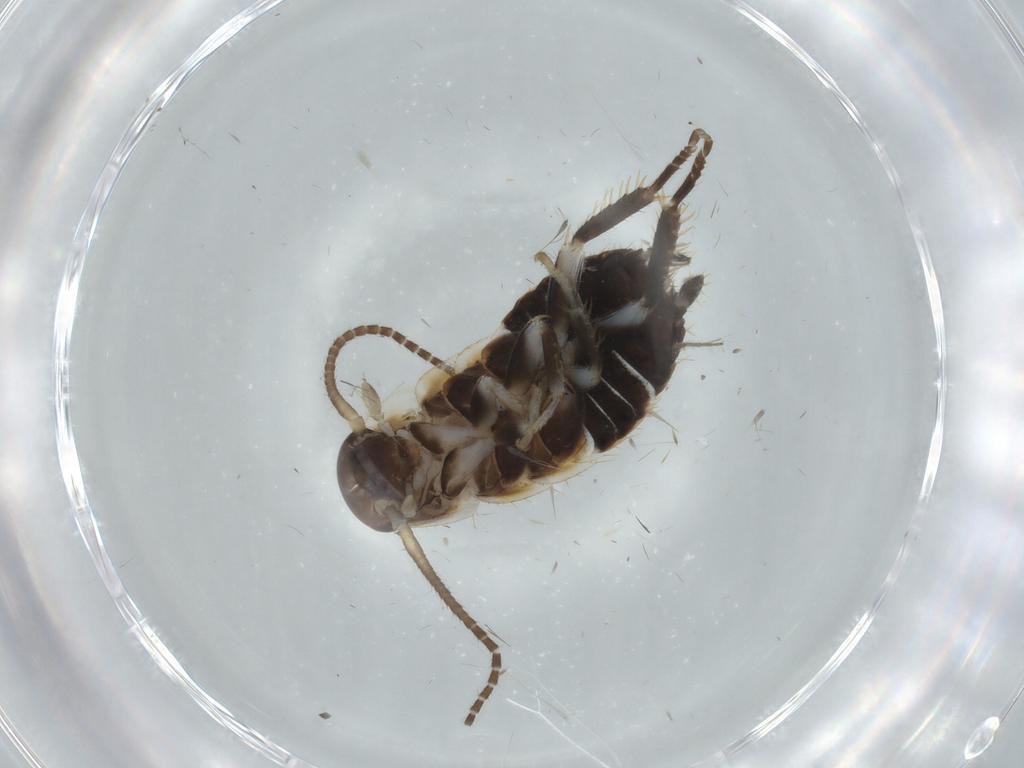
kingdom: Animalia
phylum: Arthropoda
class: Insecta
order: Blattodea
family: Ectobiidae
